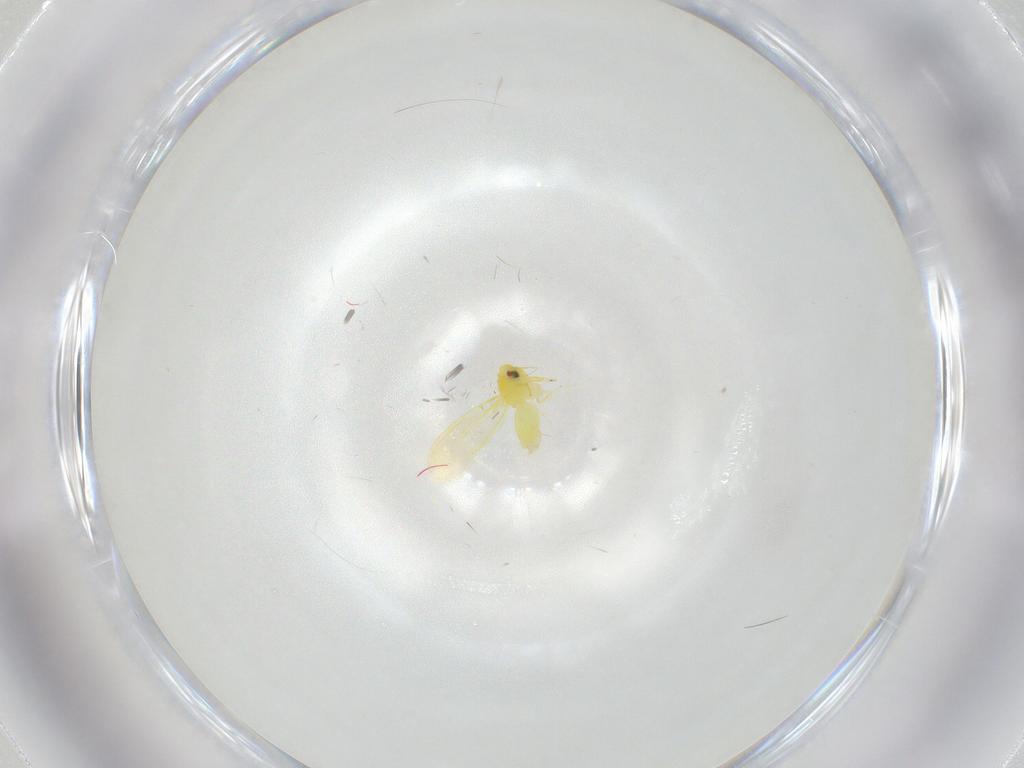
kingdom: Animalia
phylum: Arthropoda
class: Insecta
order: Hemiptera
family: Aleyrodidae
